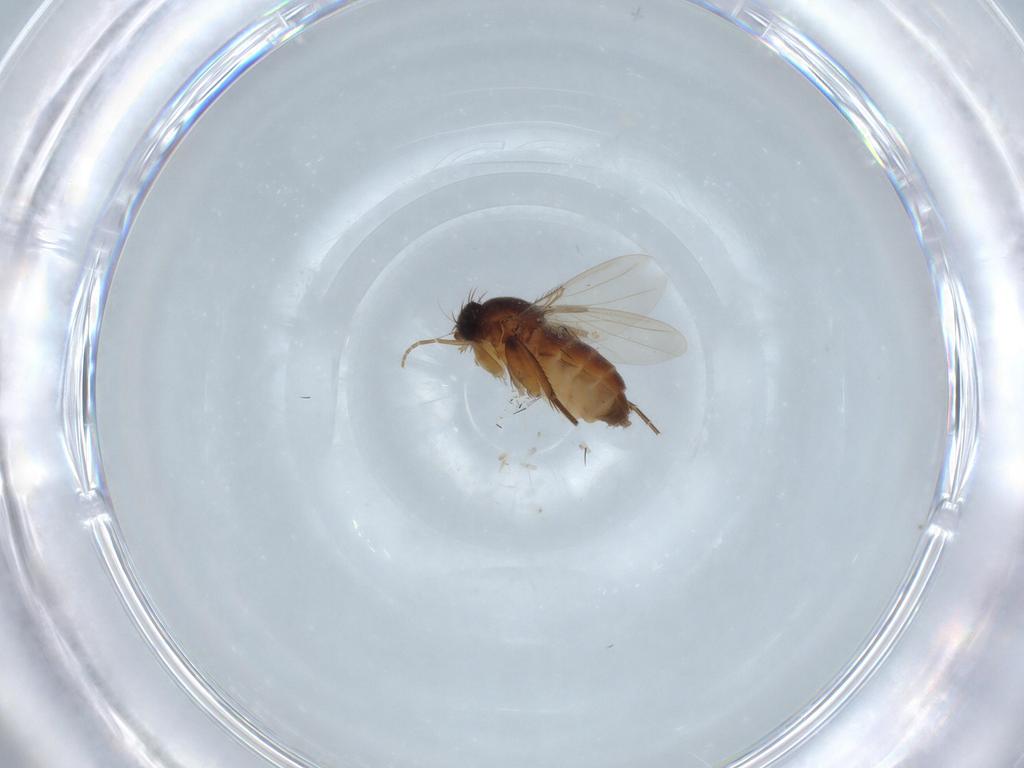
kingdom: Animalia
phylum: Arthropoda
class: Insecta
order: Diptera
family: Phoridae
